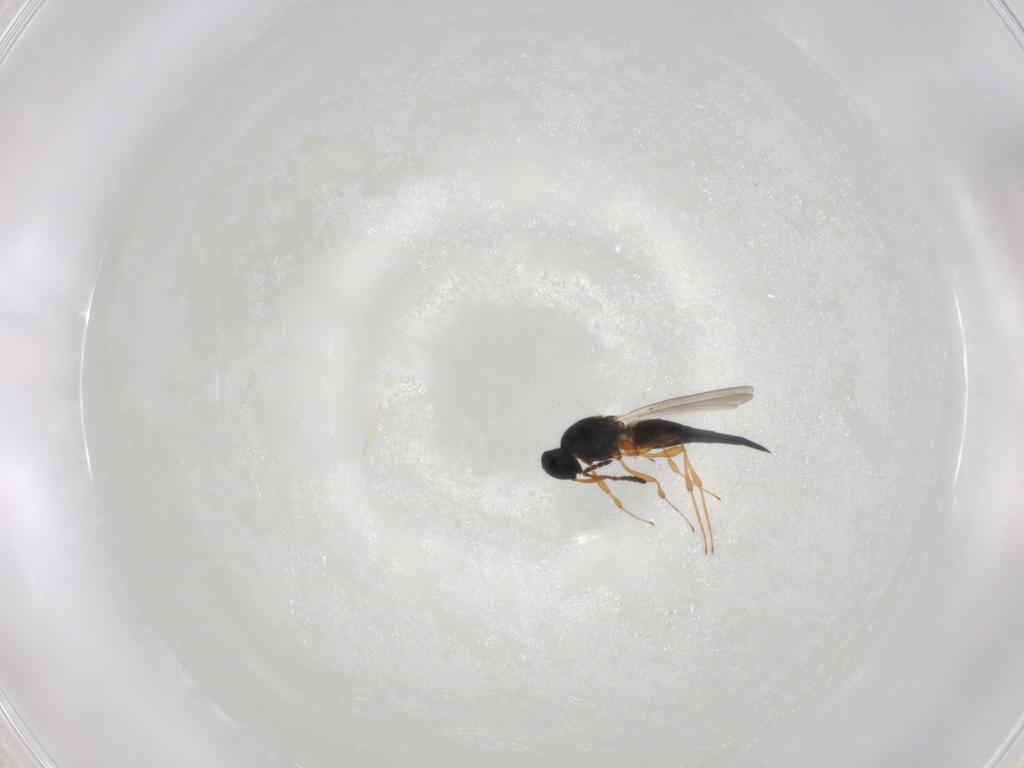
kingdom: Animalia
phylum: Arthropoda
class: Insecta
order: Hymenoptera
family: Platygastridae
